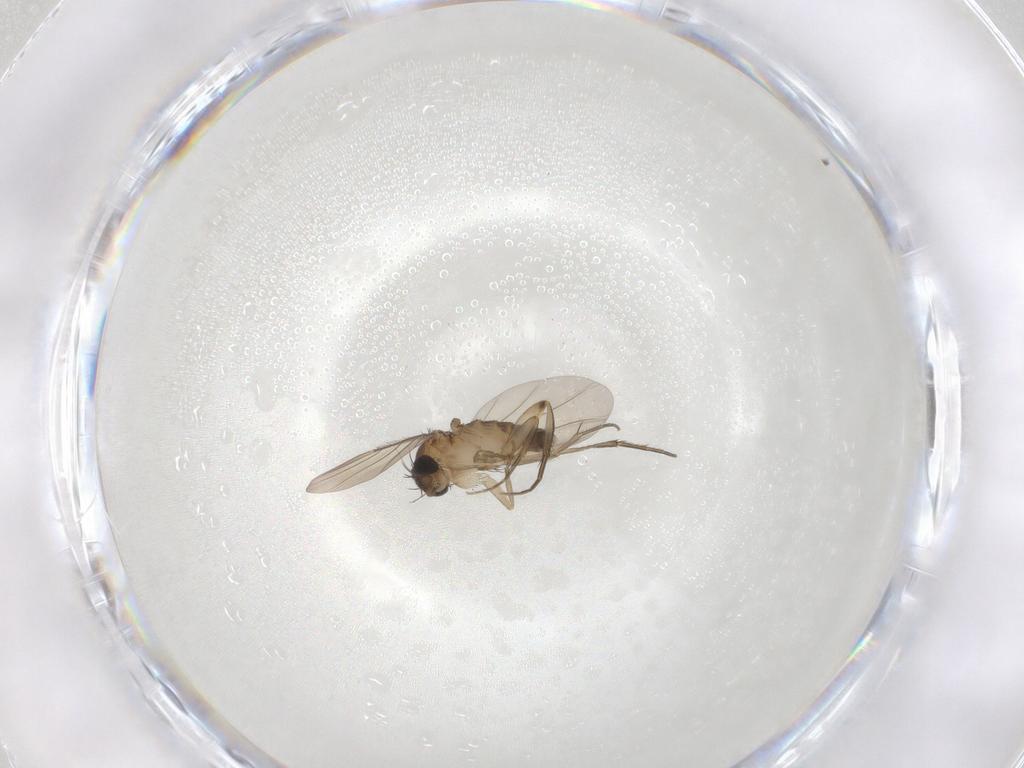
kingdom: Animalia
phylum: Arthropoda
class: Insecta
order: Diptera
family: Phoridae
